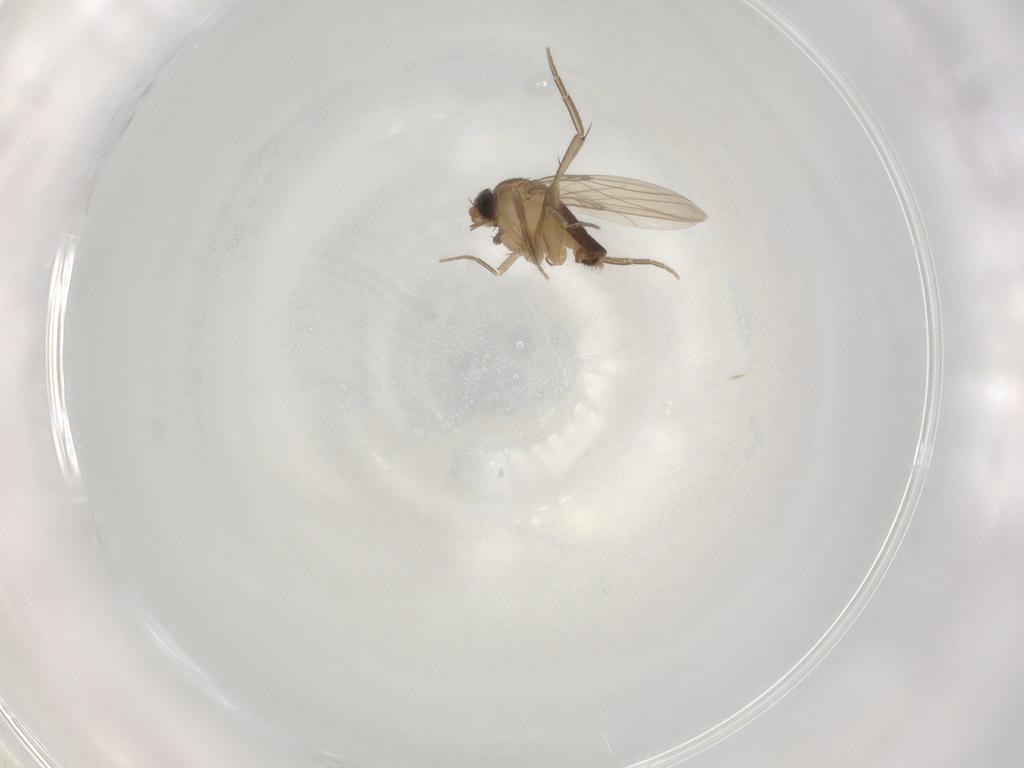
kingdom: Animalia
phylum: Arthropoda
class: Insecta
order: Diptera
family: Phoridae
